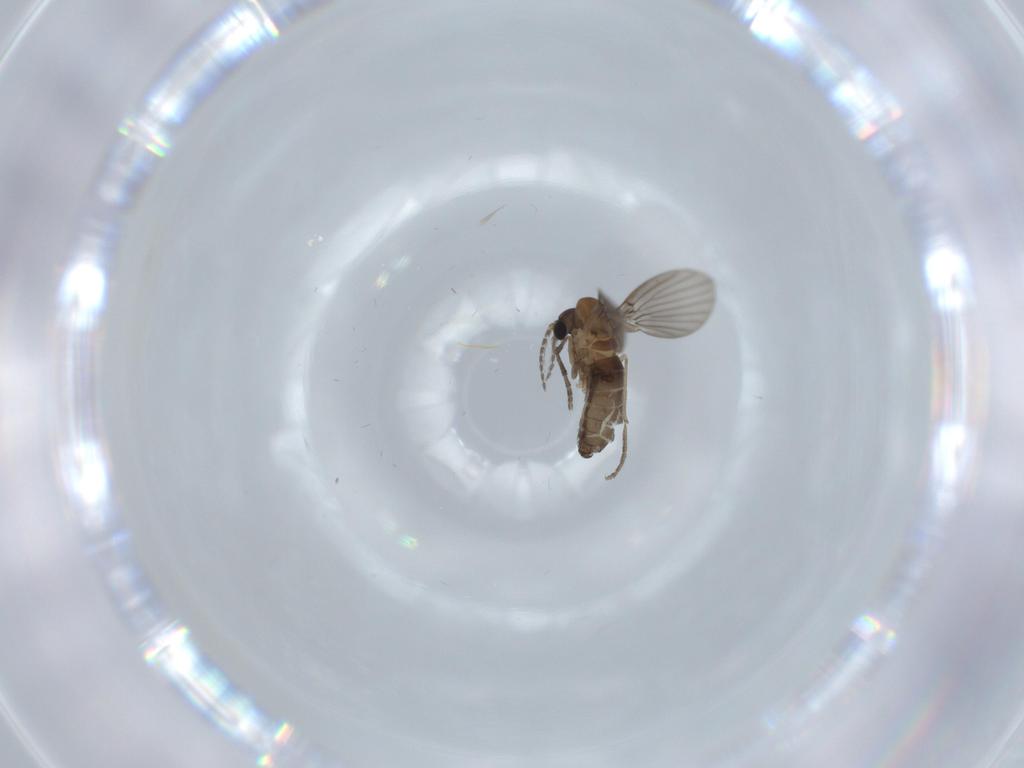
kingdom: Animalia
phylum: Arthropoda
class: Insecta
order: Diptera
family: Psychodidae
